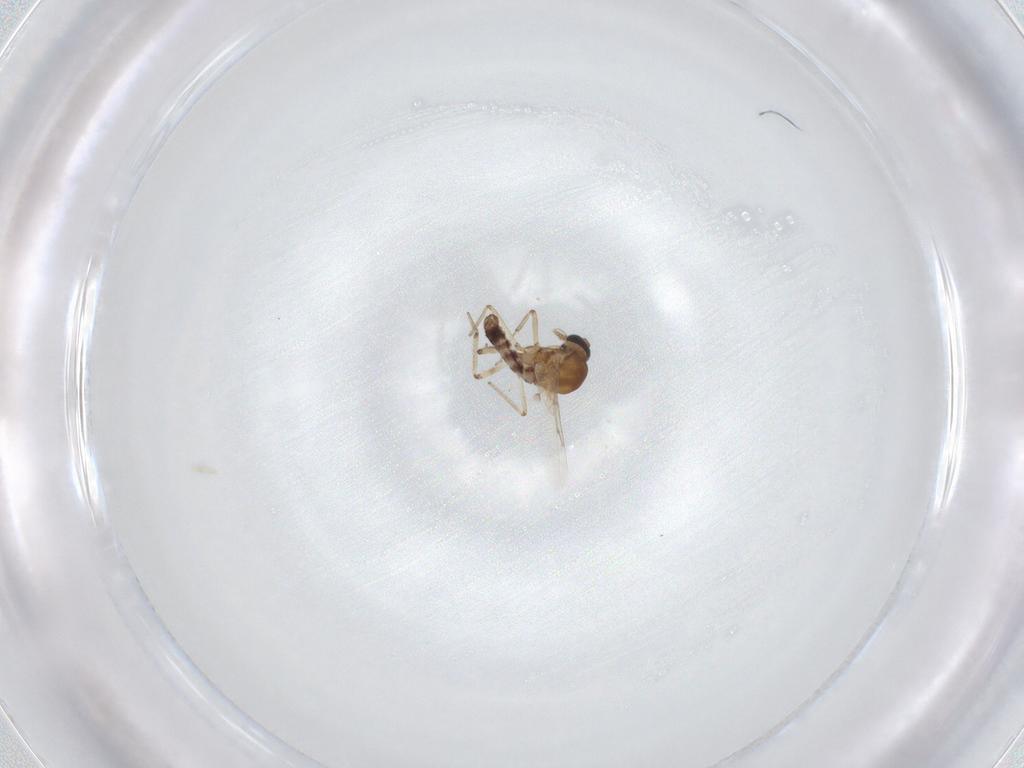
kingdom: Animalia
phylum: Arthropoda
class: Insecta
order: Diptera
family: Ceratopogonidae
